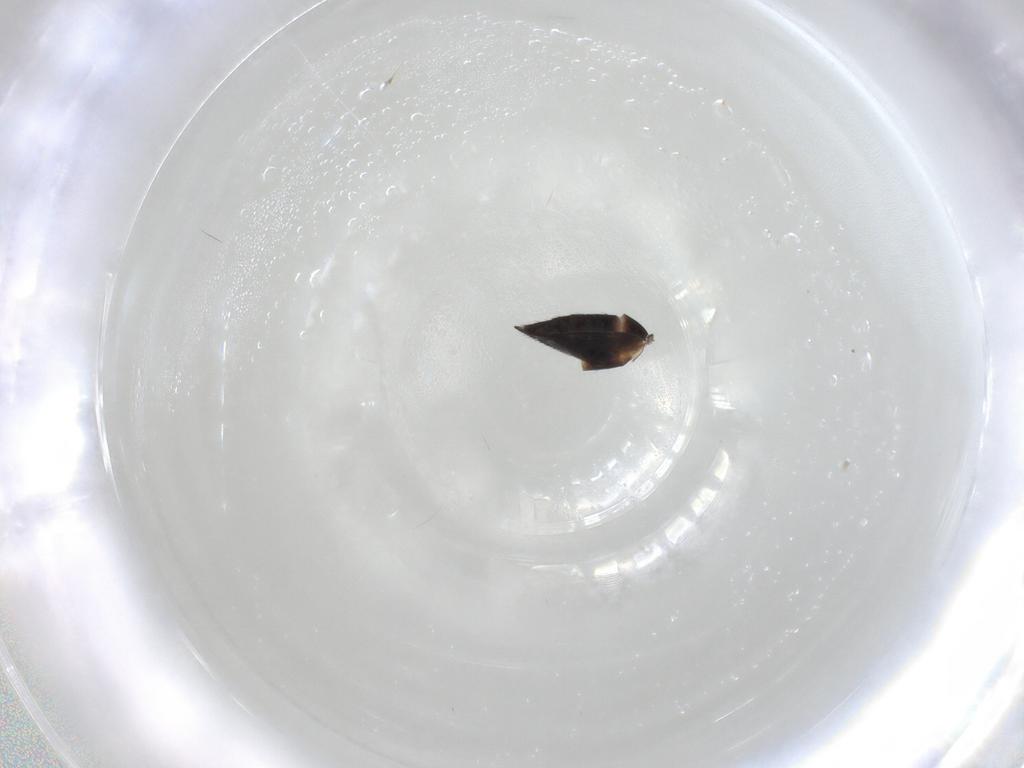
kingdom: Animalia
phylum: Arthropoda
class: Insecta
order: Hymenoptera
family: Eulophidae
